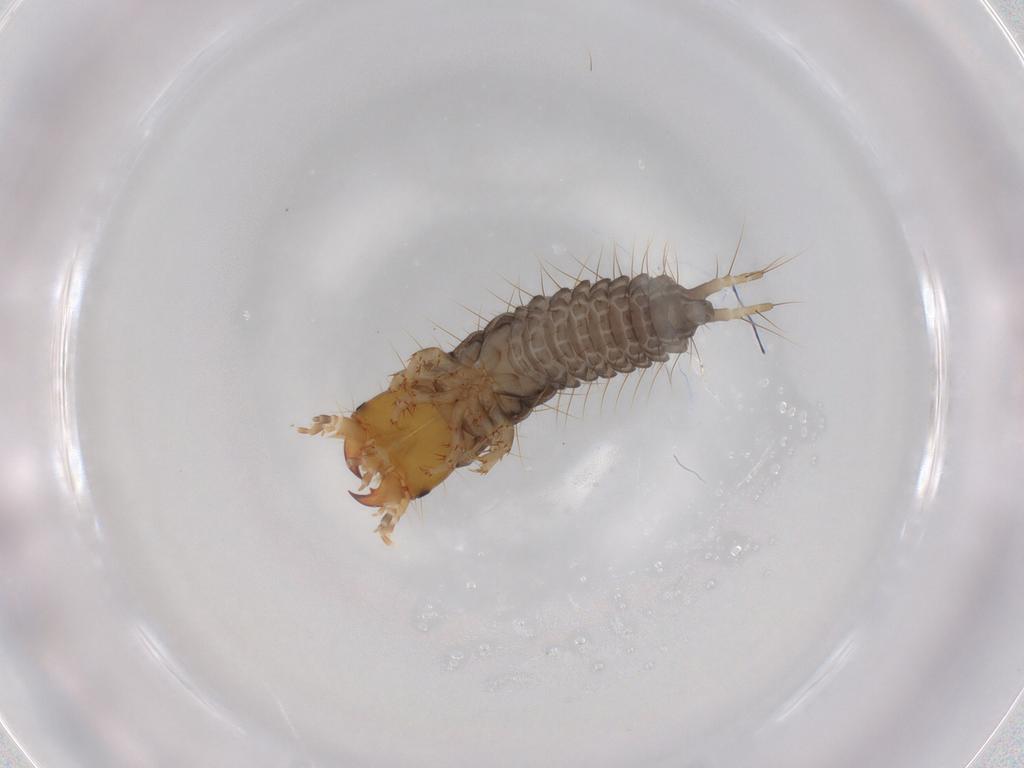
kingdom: Animalia
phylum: Arthropoda
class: Insecta
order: Coleoptera
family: Carabidae
